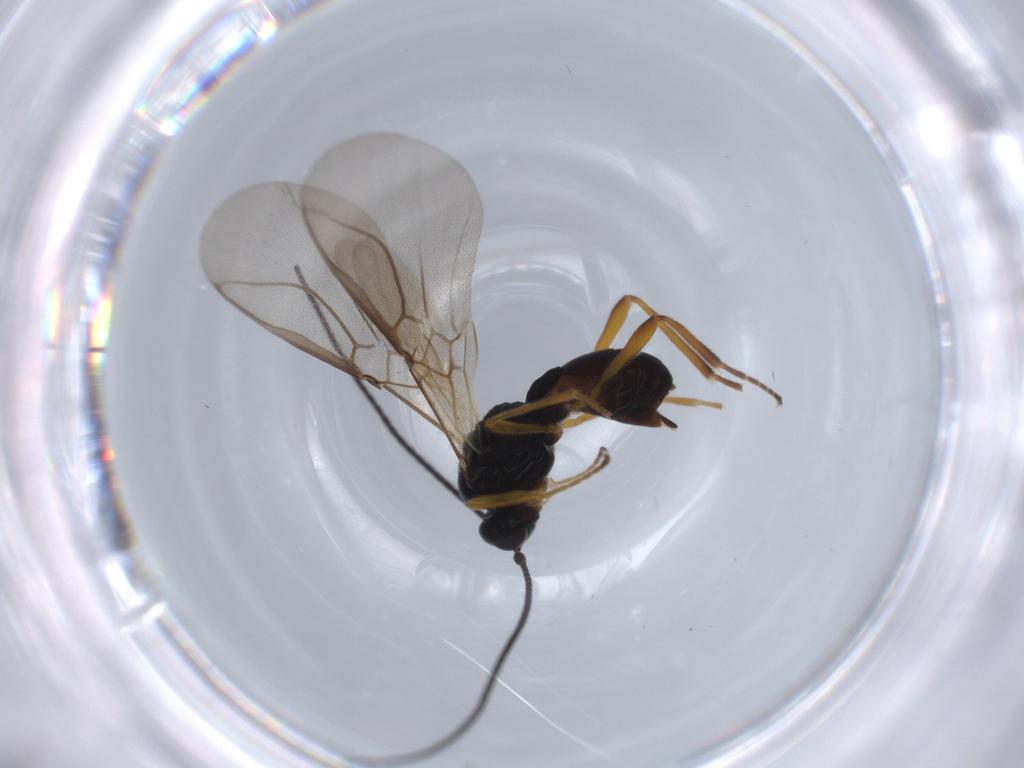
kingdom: Animalia
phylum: Arthropoda
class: Insecta
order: Hymenoptera
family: Braconidae
